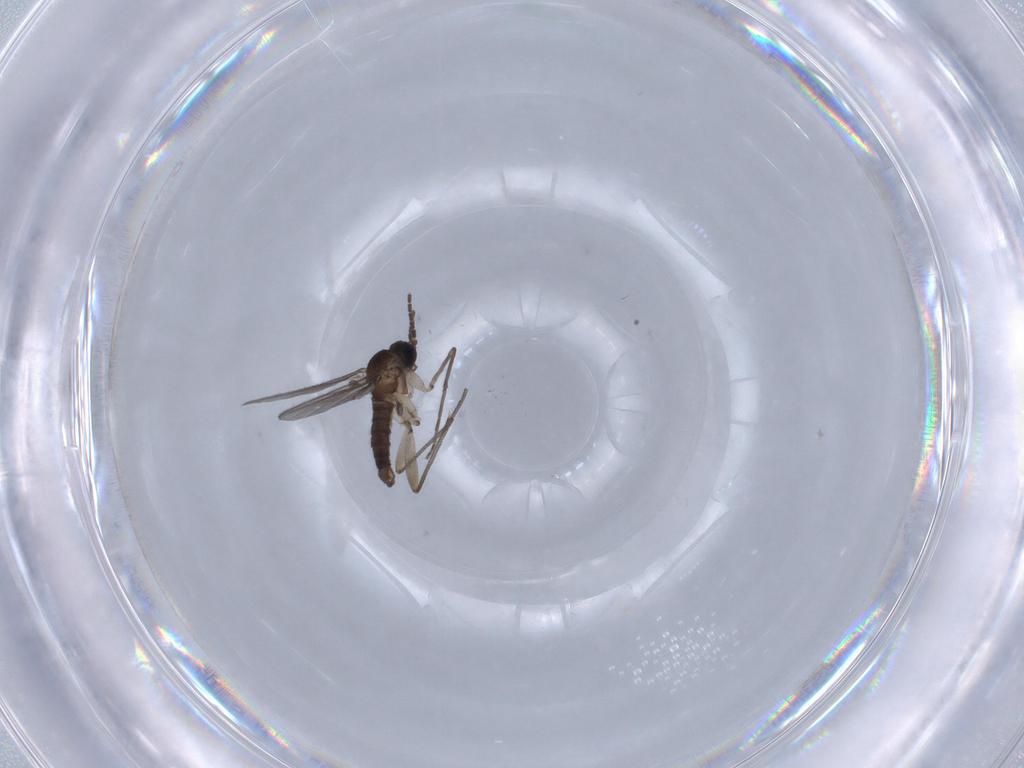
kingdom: Animalia
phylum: Arthropoda
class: Insecta
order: Diptera
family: Sciaridae
